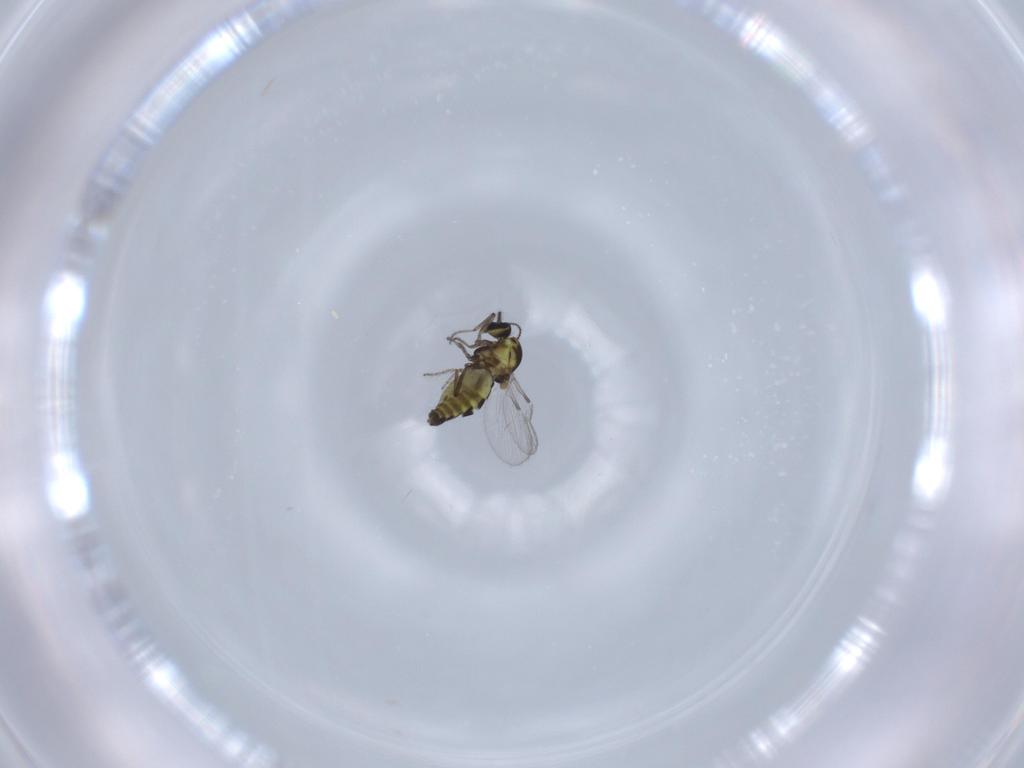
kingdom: Animalia
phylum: Arthropoda
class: Insecta
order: Diptera
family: Ceratopogonidae
